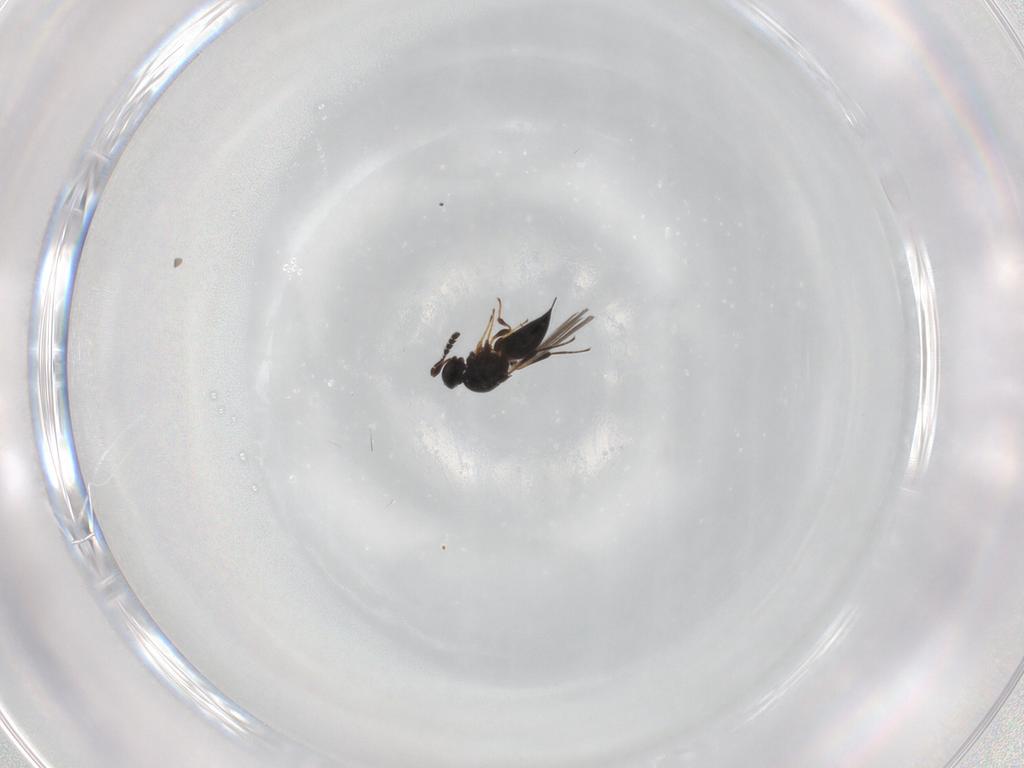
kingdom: Animalia
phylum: Arthropoda
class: Insecta
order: Hymenoptera
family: Platygastridae
